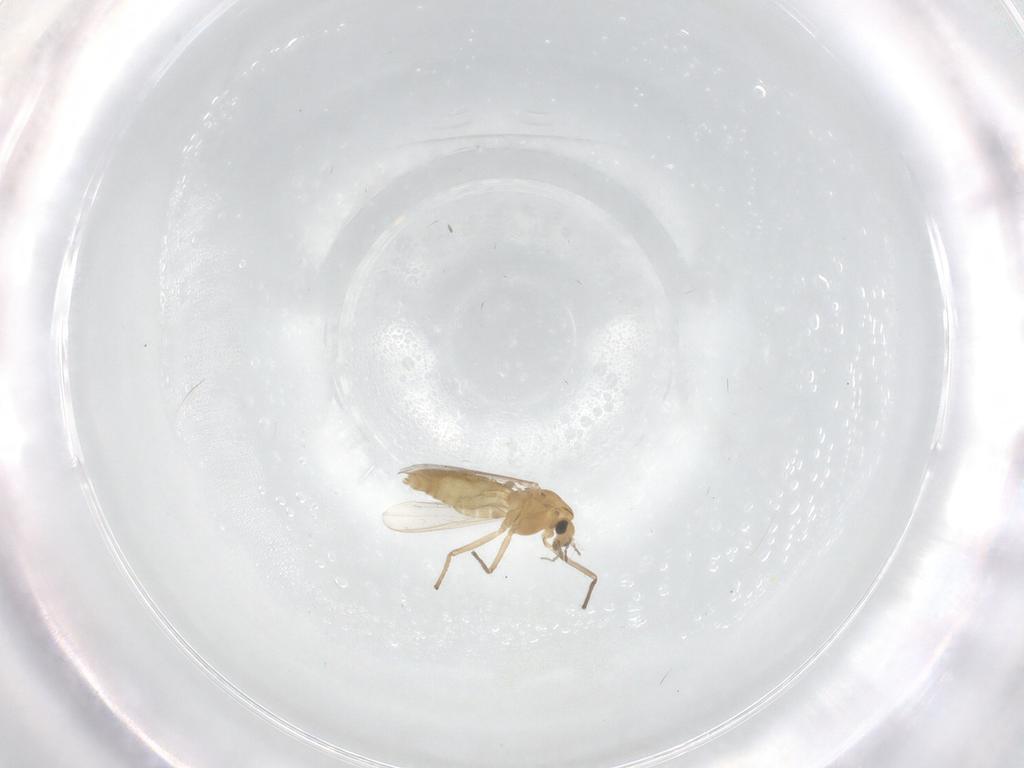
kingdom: Animalia
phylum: Arthropoda
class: Insecta
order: Diptera
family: Chironomidae
